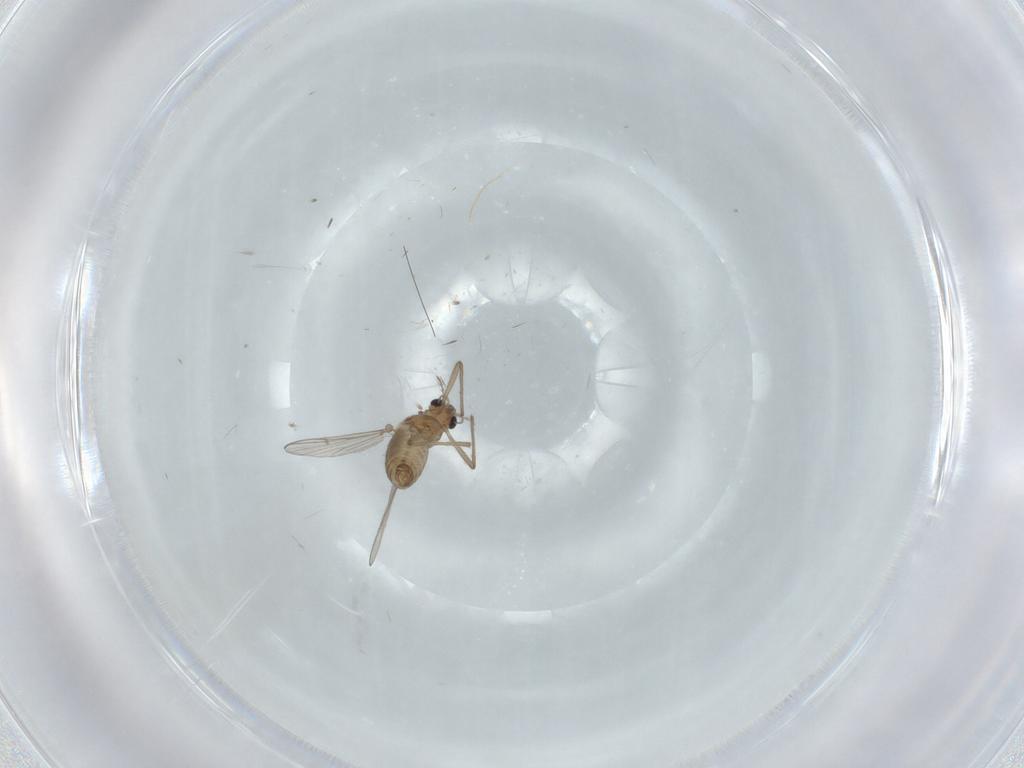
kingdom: Animalia
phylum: Arthropoda
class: Insecta
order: Diptera
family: Chironomidae
